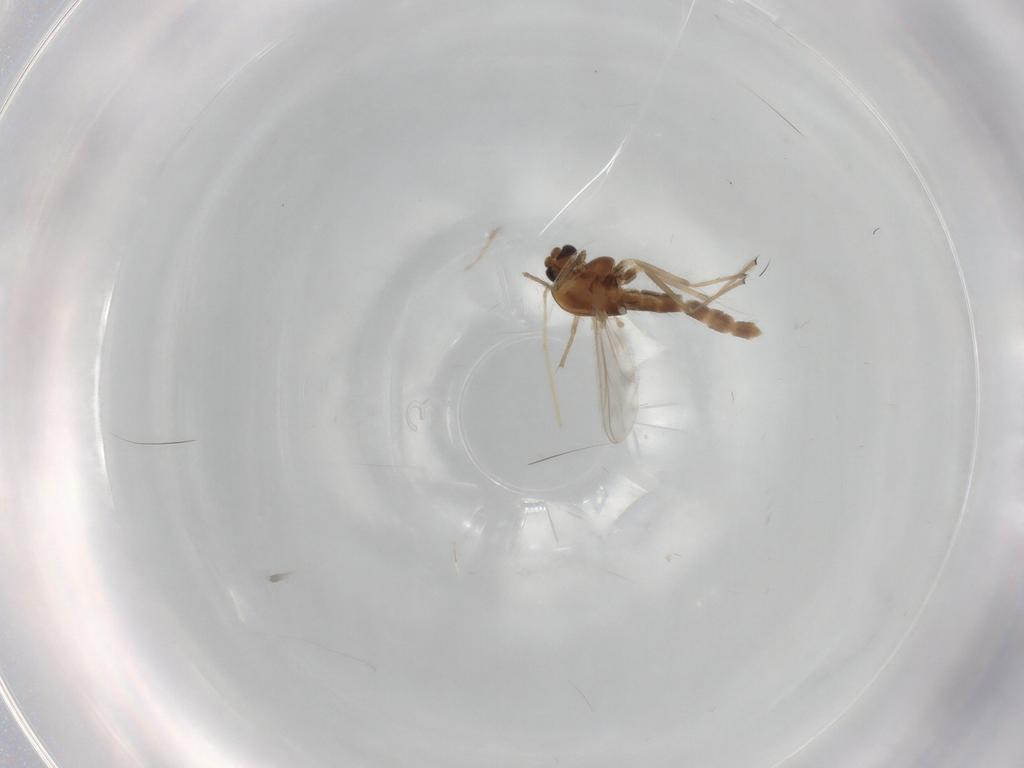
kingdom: Animalia
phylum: Arthropoda
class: Insecta
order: Diptera
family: Chironomidae
